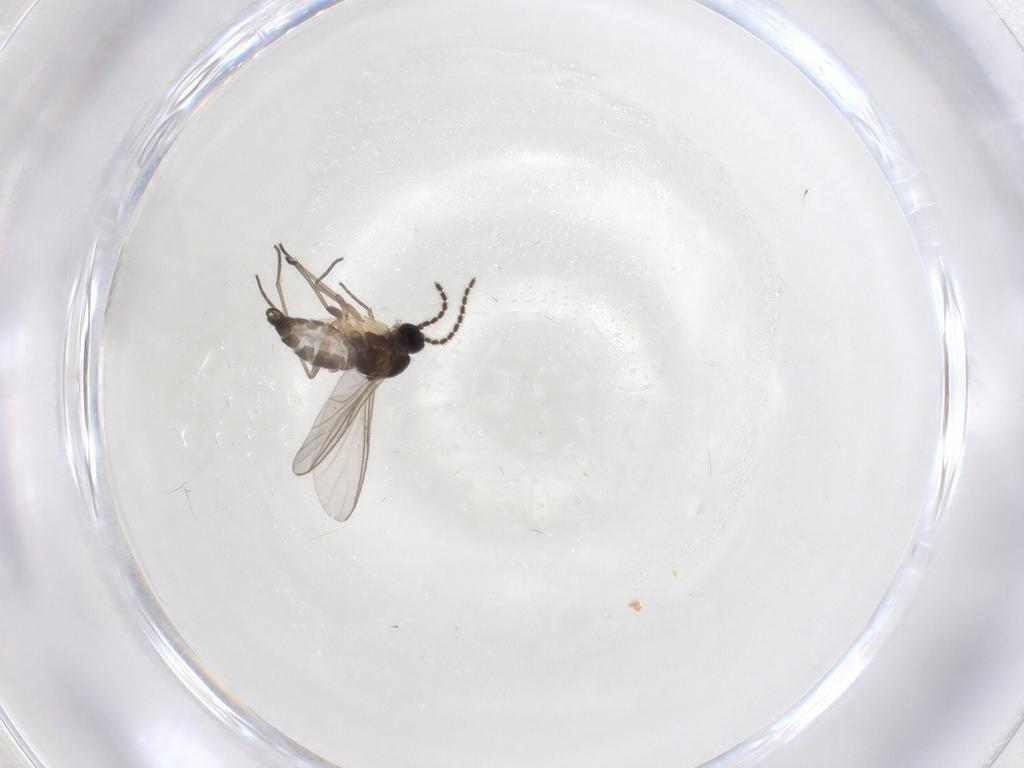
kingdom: Animalia
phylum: Arthropoda
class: Insecta
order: Diptera
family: Sciaridae
